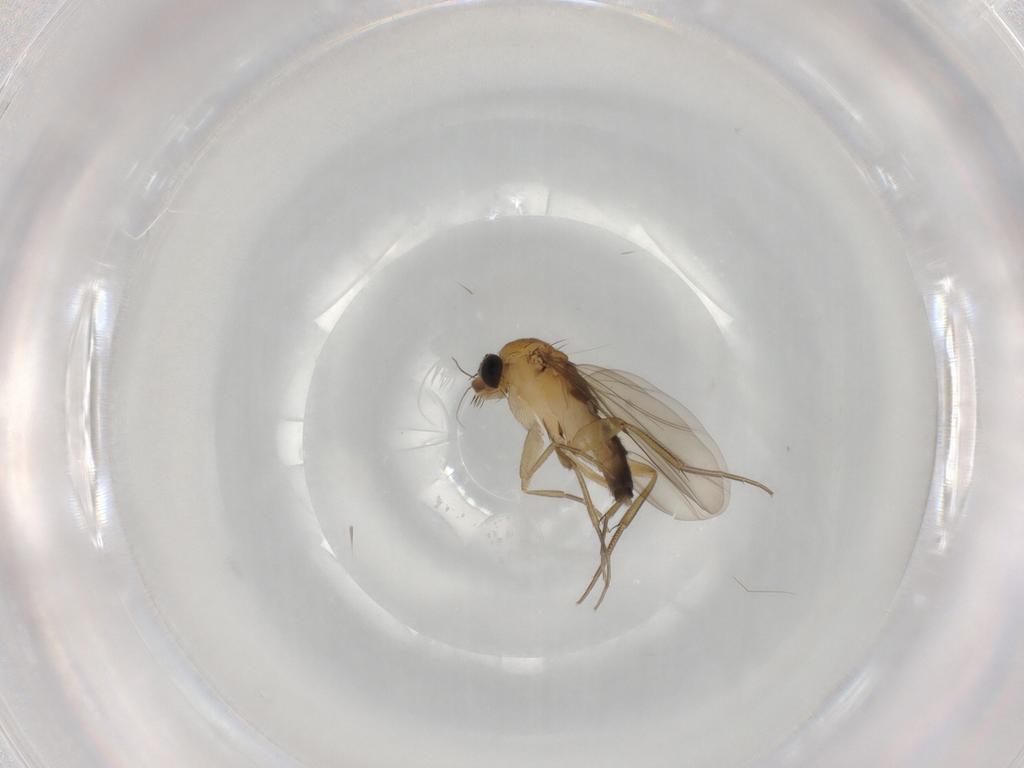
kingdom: Animalia
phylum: Arthropoda
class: Insecta
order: Diptera
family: Phoridae
